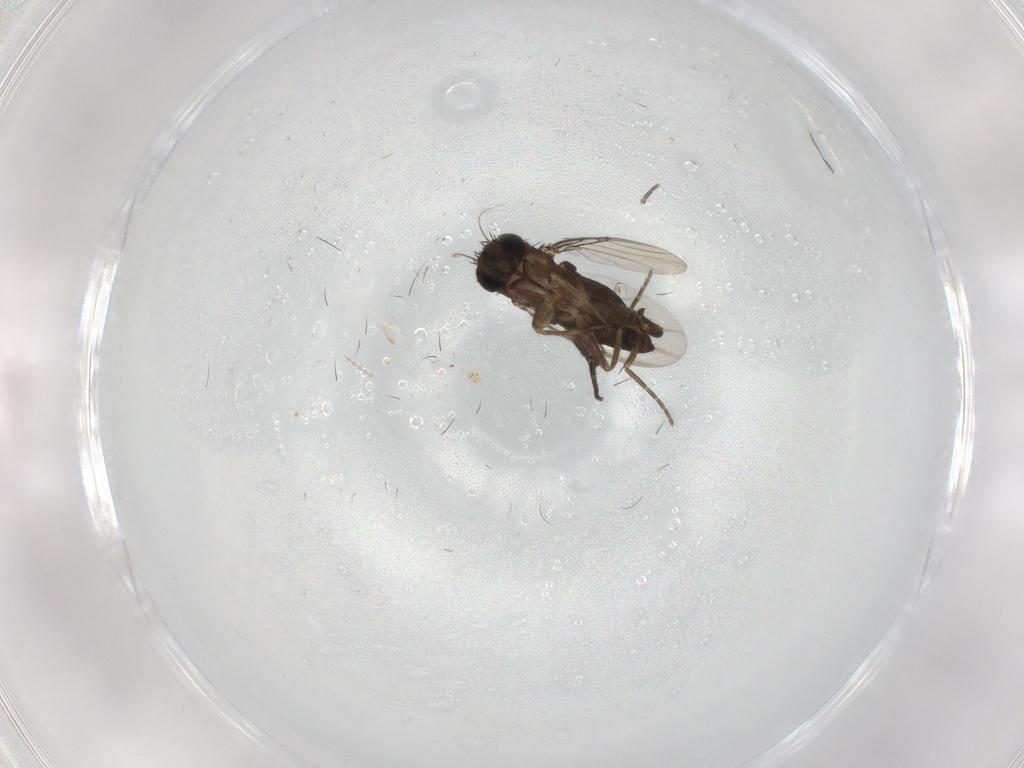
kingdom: Animalia
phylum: Arthropoda
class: Insecta
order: Diptera
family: Phoridae
